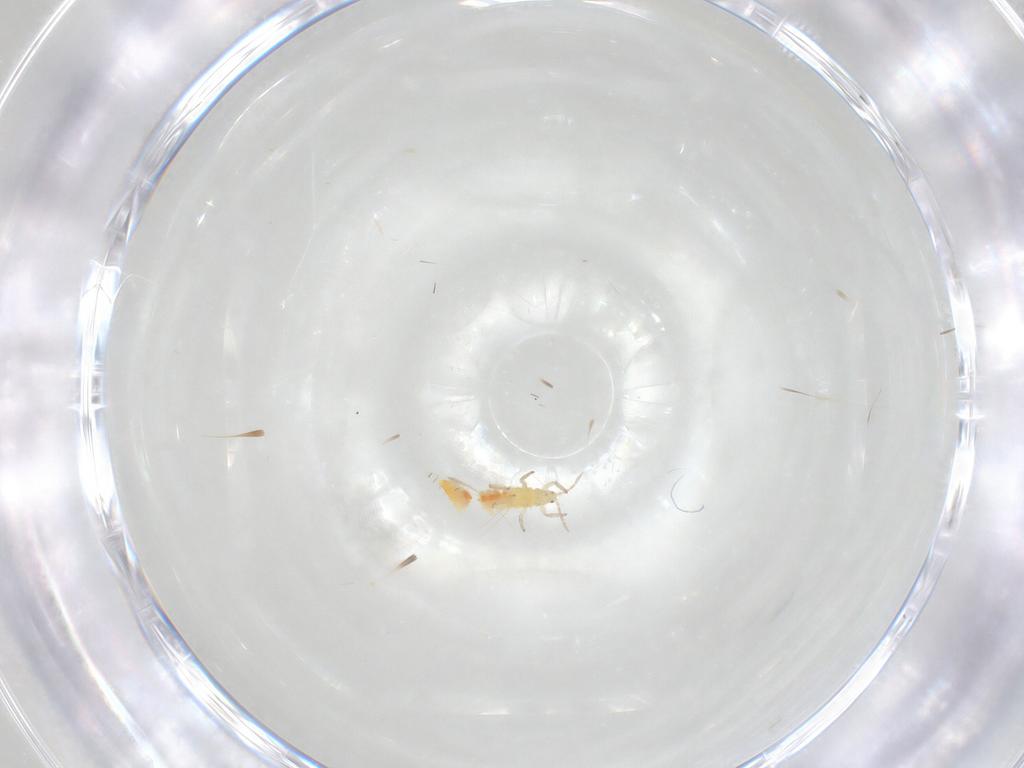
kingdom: Animalia
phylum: Arthropoda
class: Insecta
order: Thysanoptera
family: Aeolothripidae
